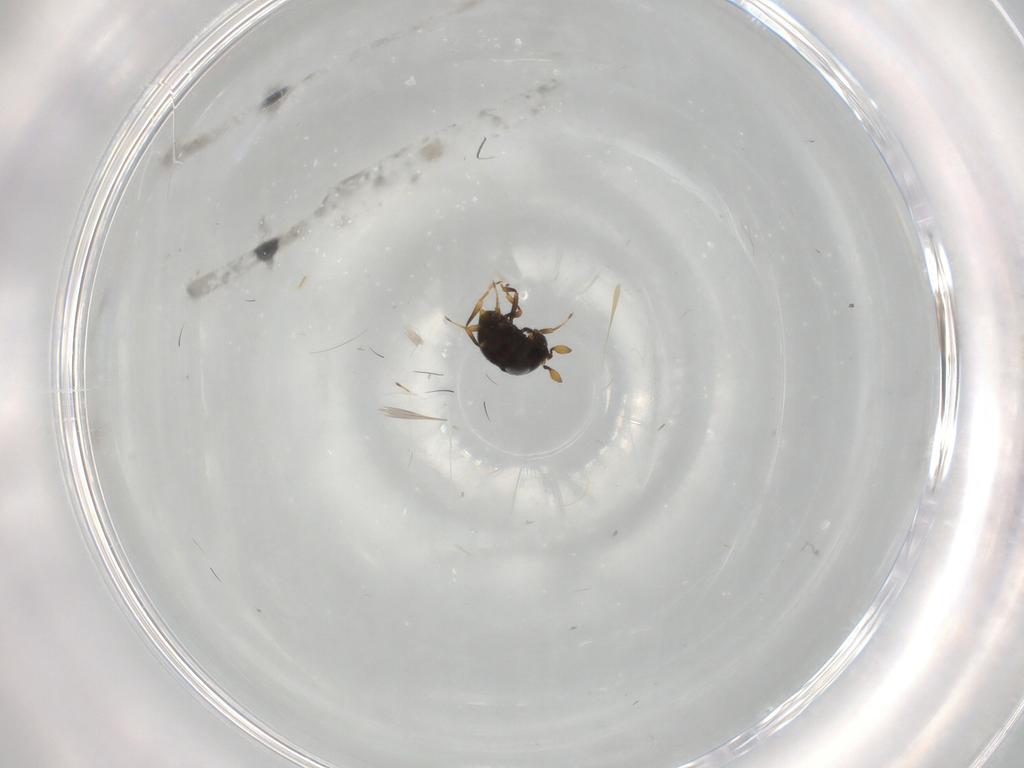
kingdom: Animalia
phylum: Arthropoda
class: Insecta
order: Hymenoptera
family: Scelionidae
